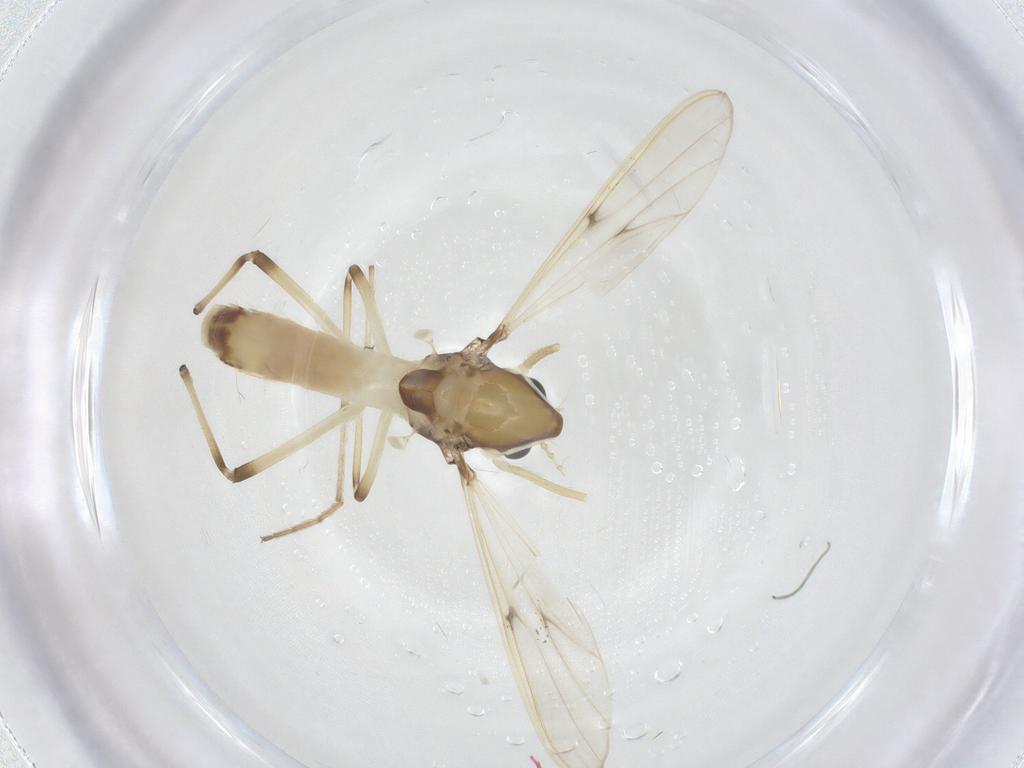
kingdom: Animalia
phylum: Arthropoda
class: Insecta
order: Diptera
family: Chironomidae
